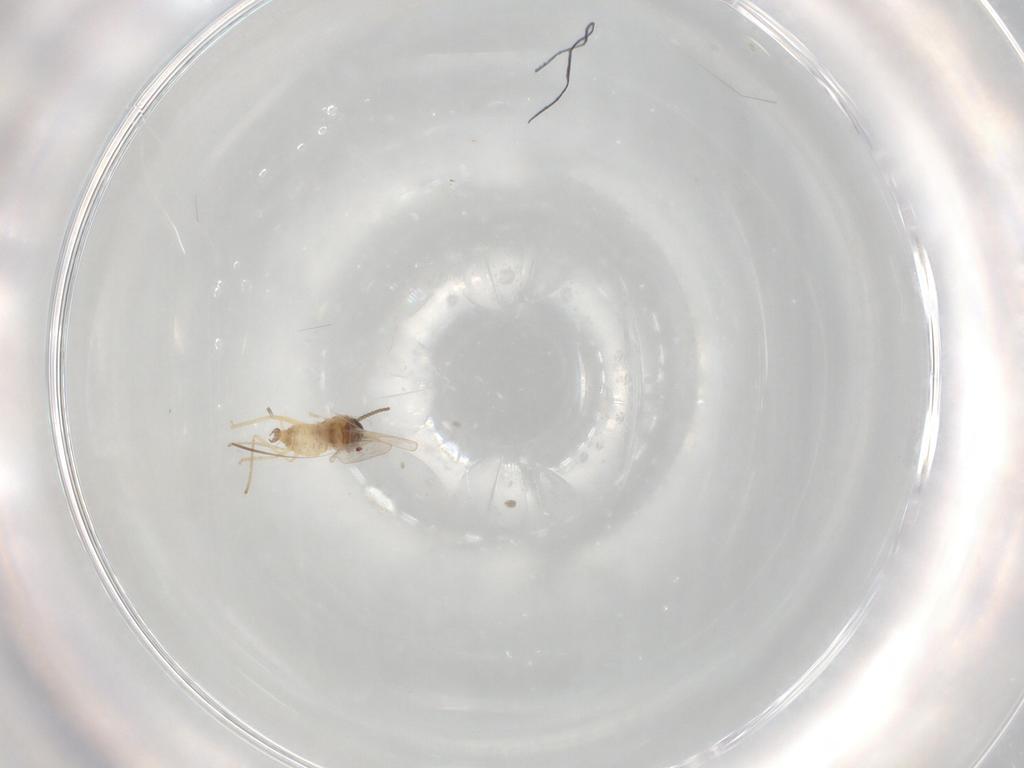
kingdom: Animalia
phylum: Arthropoda
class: Insecta
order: Diptera
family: Cecidomyiidae
